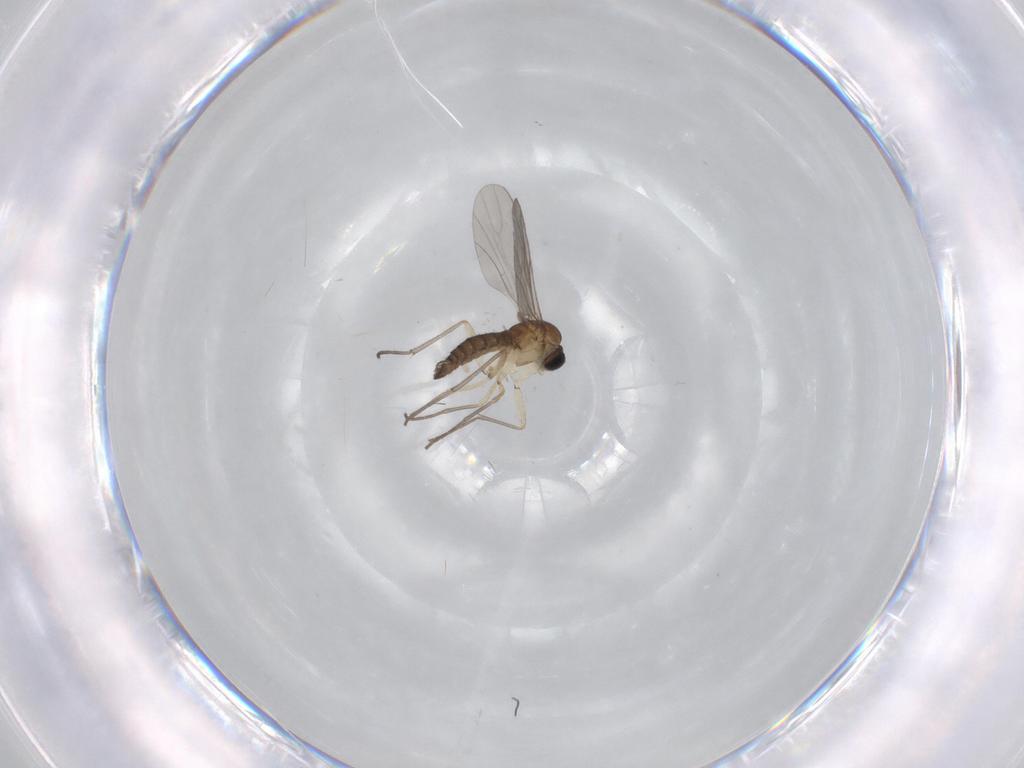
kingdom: Animalia
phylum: Arthropoda
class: Insecta
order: Diptera
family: Sciaridae
